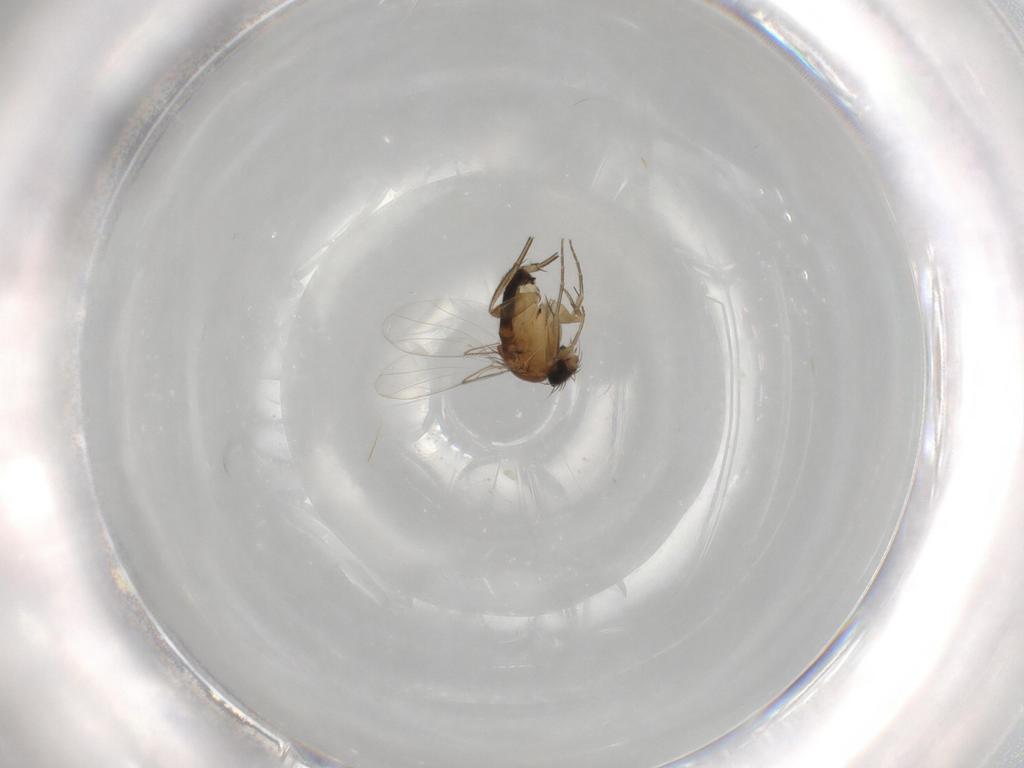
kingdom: Animalia
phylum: Arthropoda
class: Insecta
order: Diptera
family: Phoridae
